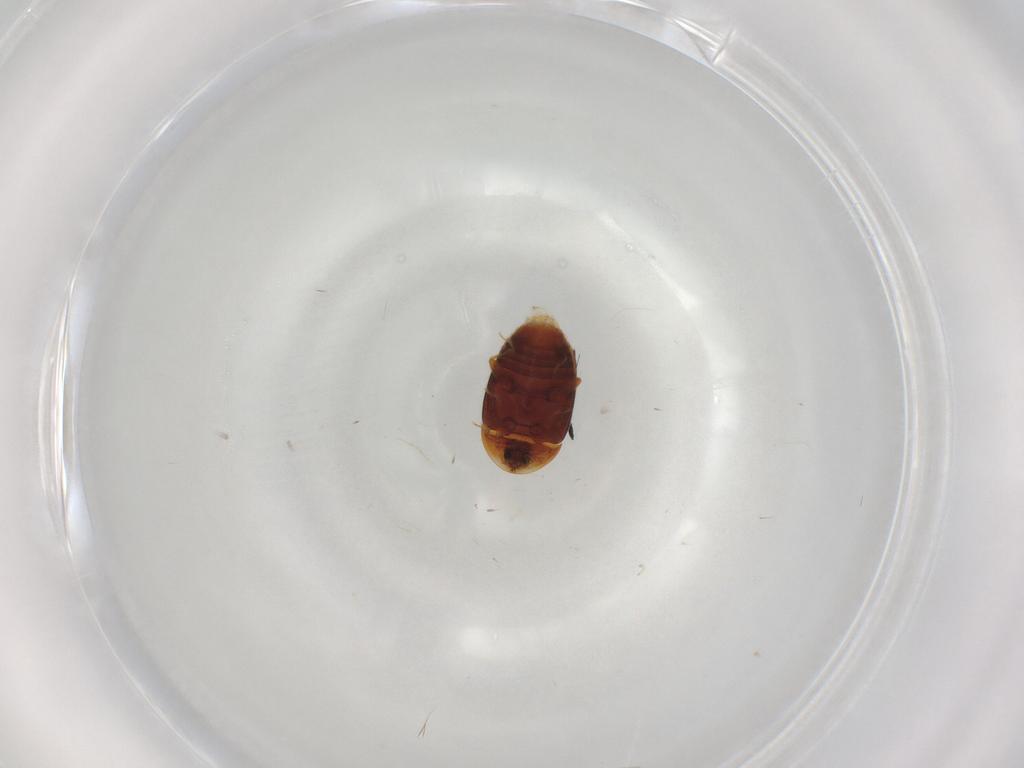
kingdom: Animalia
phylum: Arthropoda
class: Insecta
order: Coleoptera
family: Corylophidae
